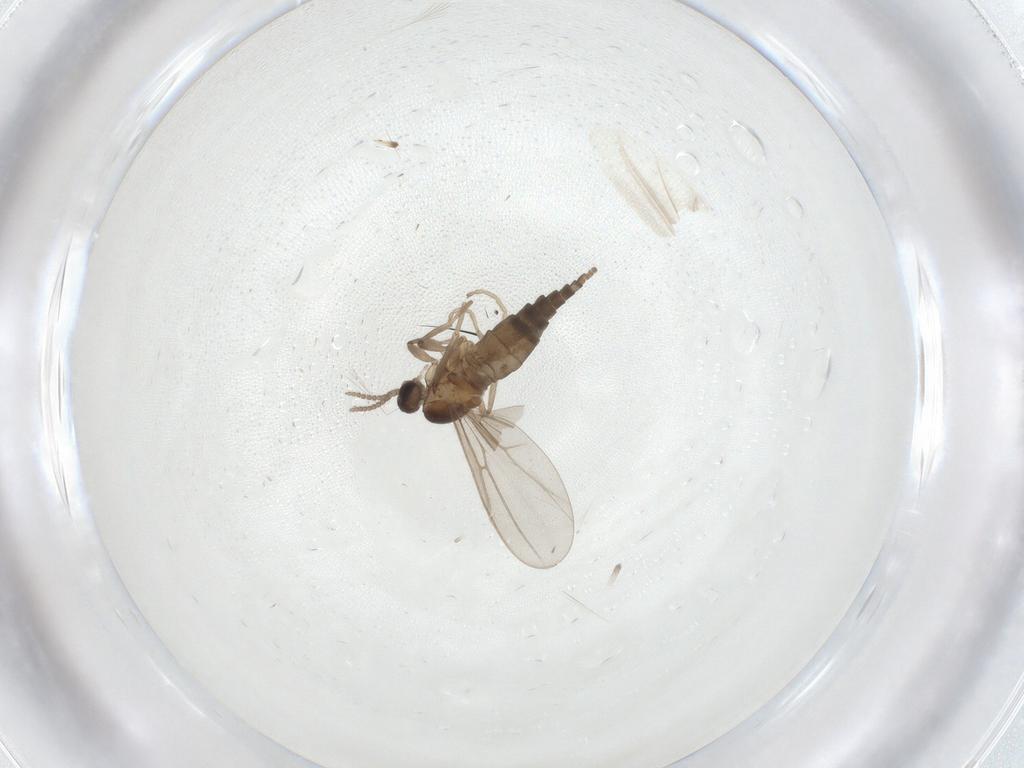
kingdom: Animalia
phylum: Arthropoda
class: Insecta
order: Diptera
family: Cecidomyiidae
